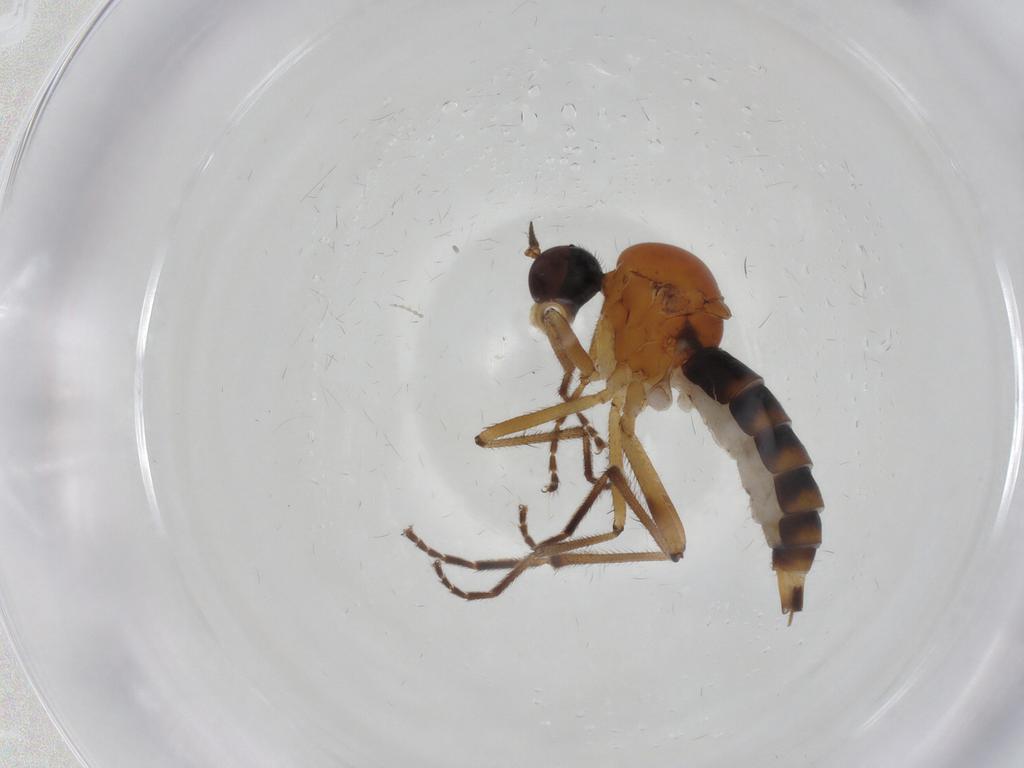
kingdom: Animalia
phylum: Arthropoda
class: Insecta
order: Diptera
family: Hybotidae
